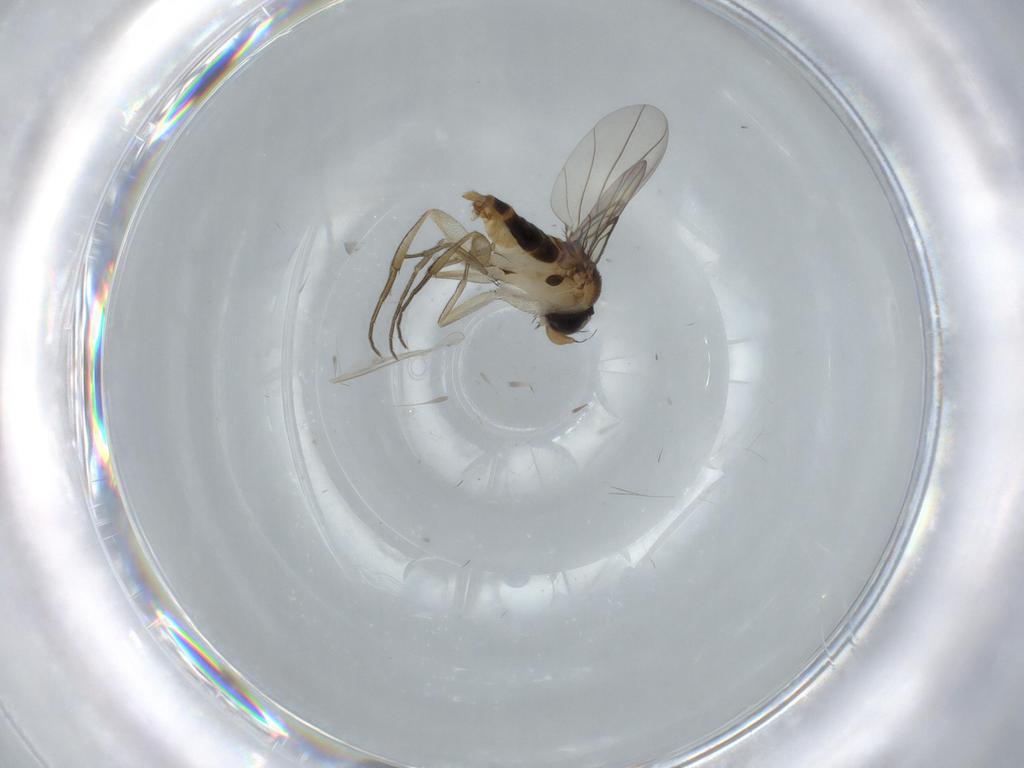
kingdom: Animalia
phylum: Arthropoda
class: Insecta
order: Diptera
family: Phoridae
